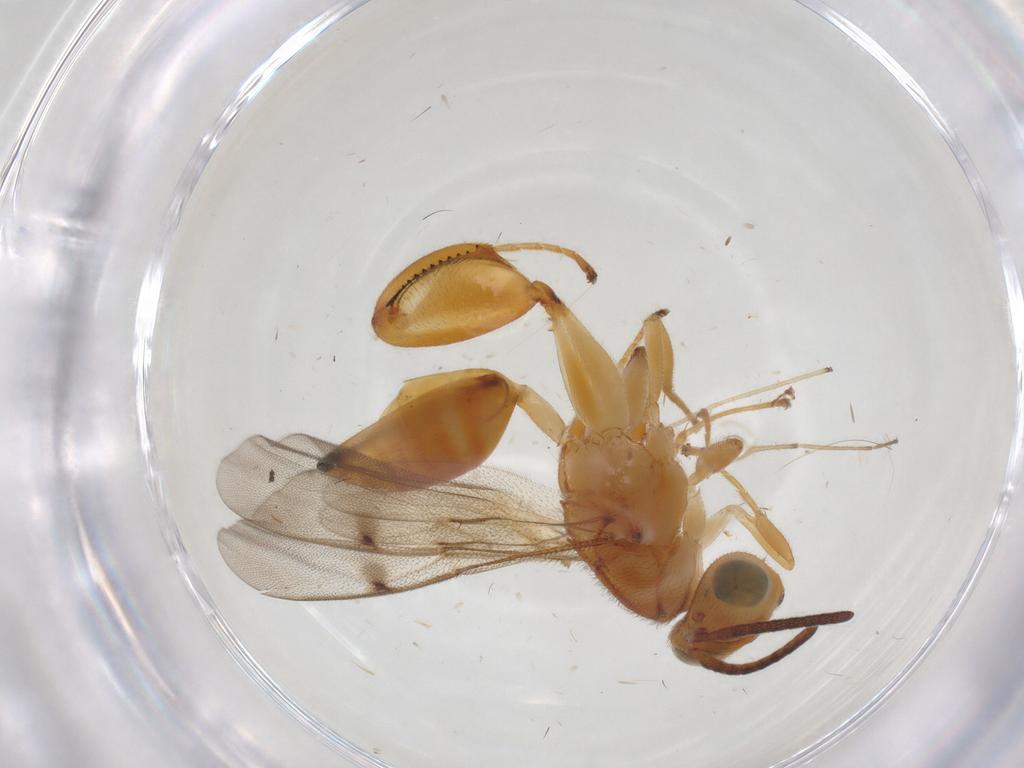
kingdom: Animalia
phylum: Arthropoda
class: Insecta
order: Hymenoptera
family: Chalcididae
